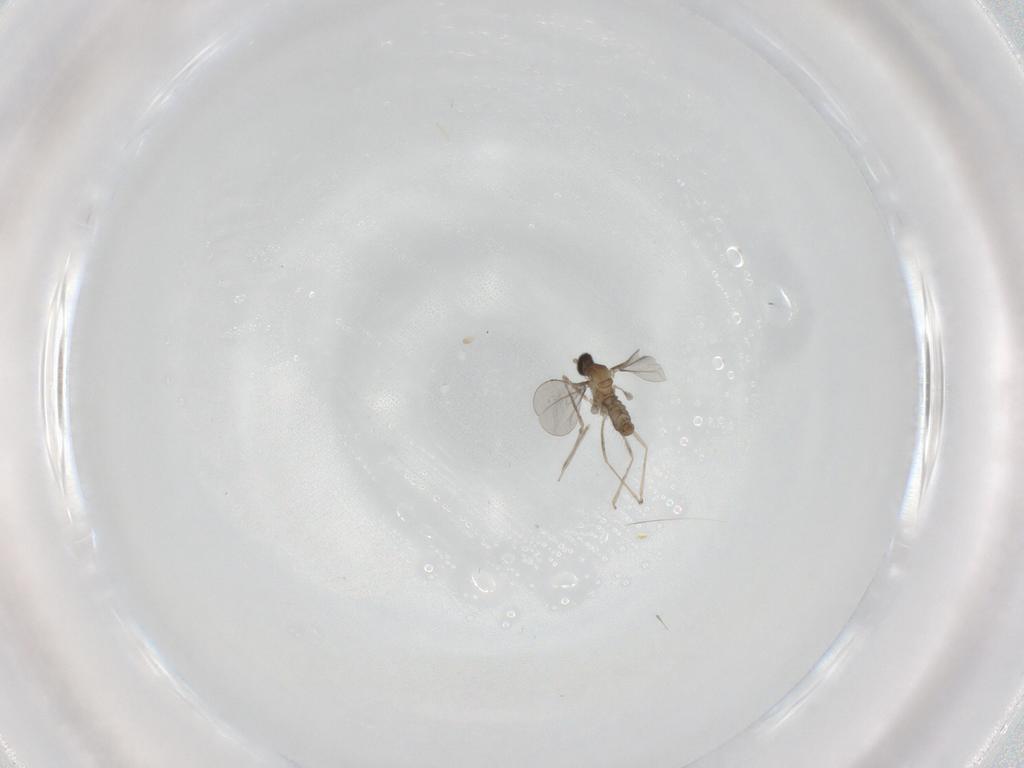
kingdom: Animalia
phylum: Arthropoda
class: Insecta
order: Diptera
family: Cecidomyiidae
